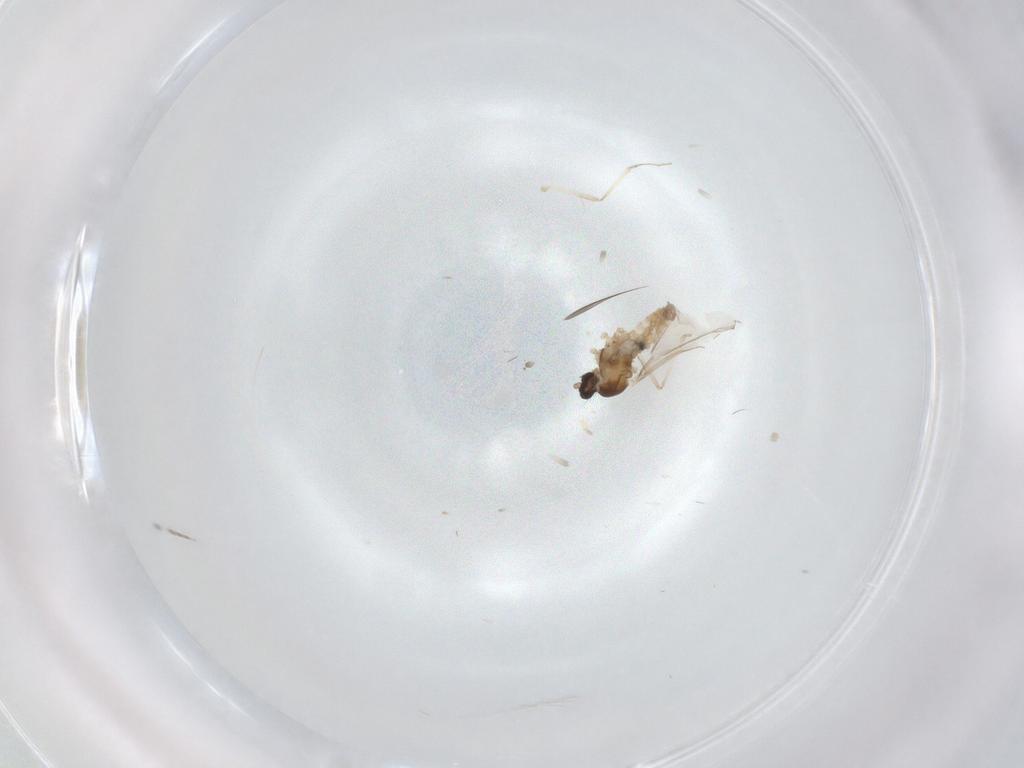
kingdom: Animalia
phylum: Arthropoda
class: Insecta
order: Diptera
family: Cecidomyiidae
